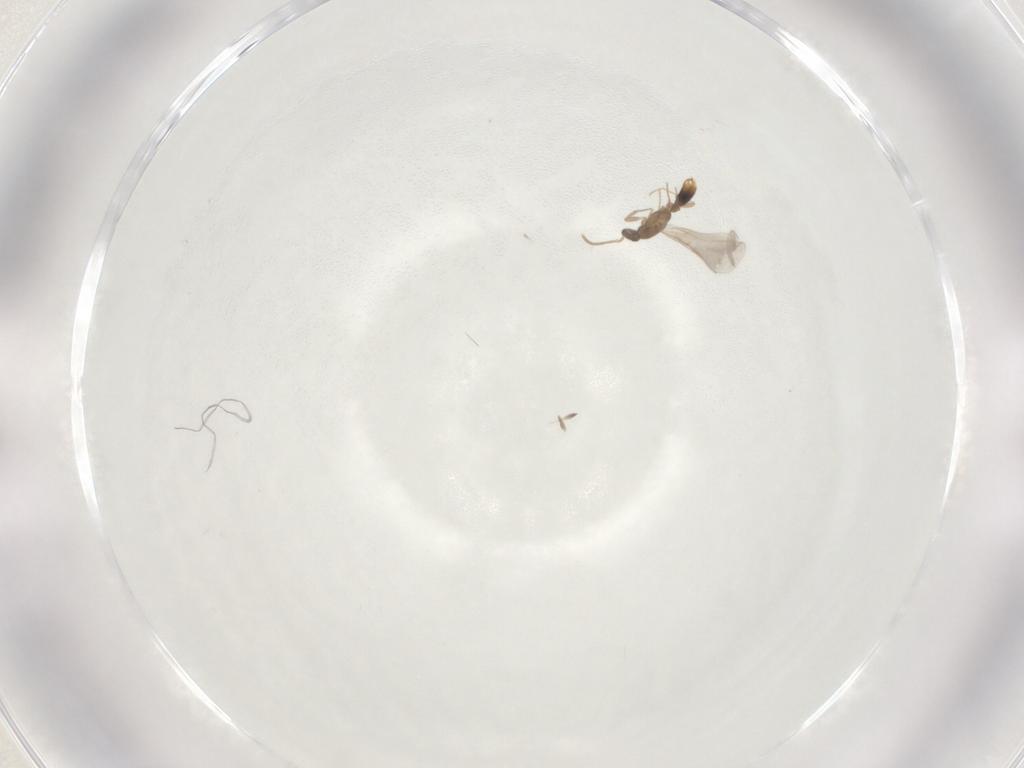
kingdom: Animalia
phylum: Arthropoda
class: Insecta
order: Hymenoptera
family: Formicidae
